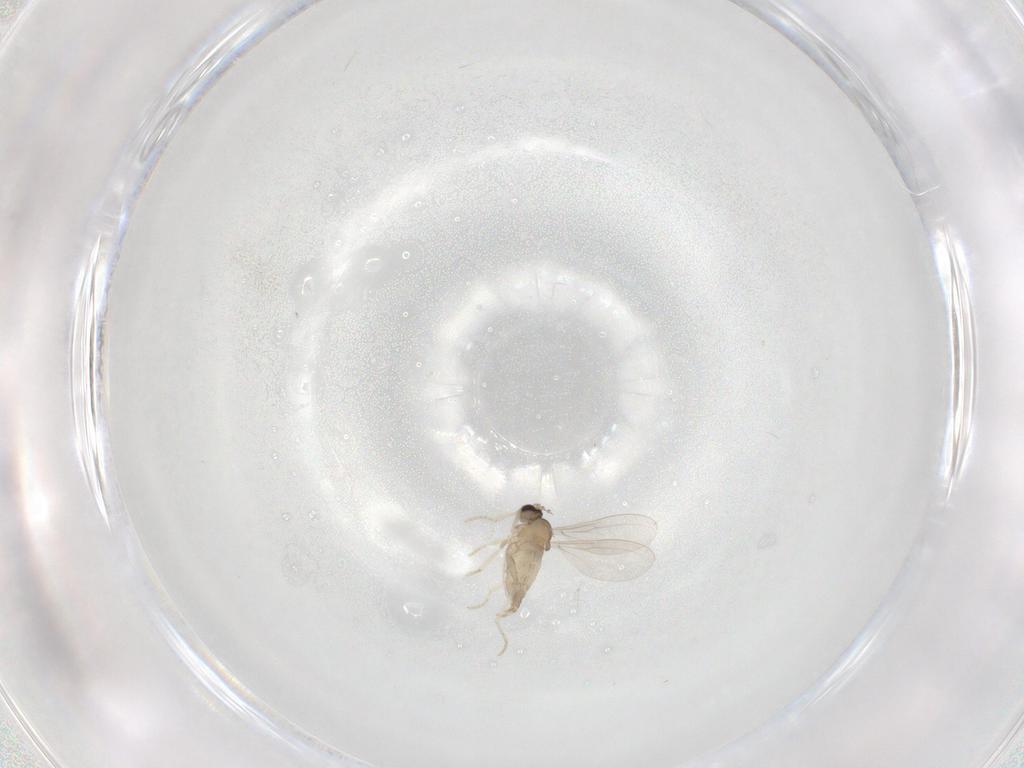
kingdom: Animalia
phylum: Arthropoda
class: Insecta
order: Diptera
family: Cecidomyiidae
